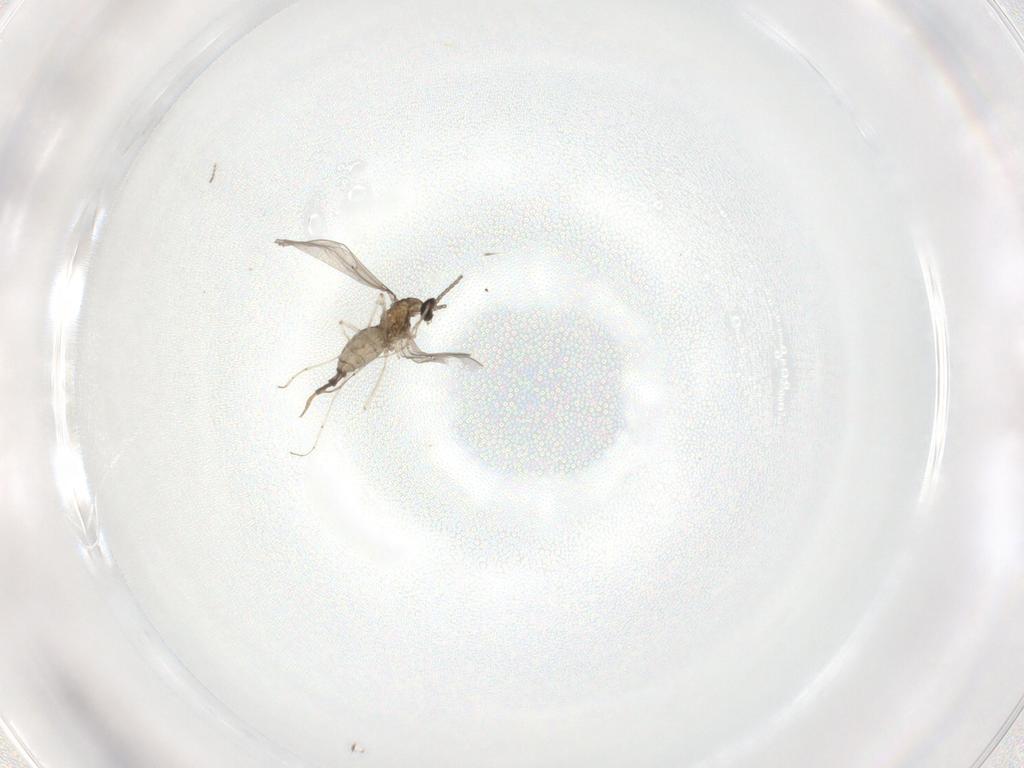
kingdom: Animalia
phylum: Arthropoda
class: Insecta
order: Diptera
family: Cecidomyiidae
